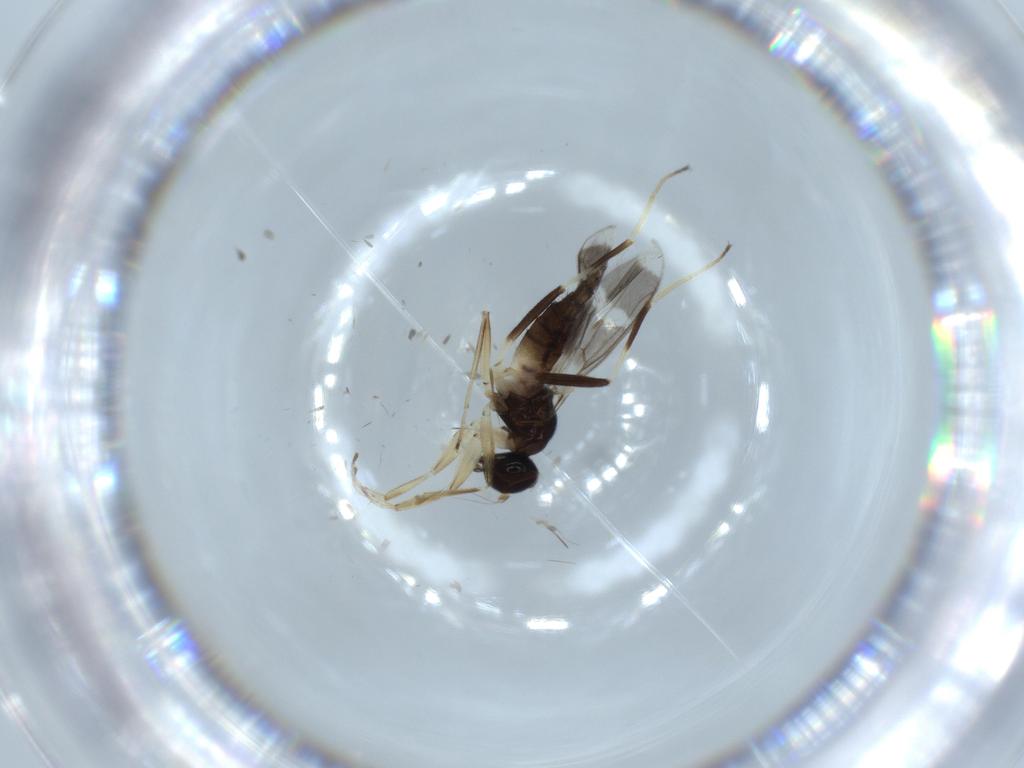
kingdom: Animalia
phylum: Arthropoda
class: Insecta
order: Diptera
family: Hybotidae
